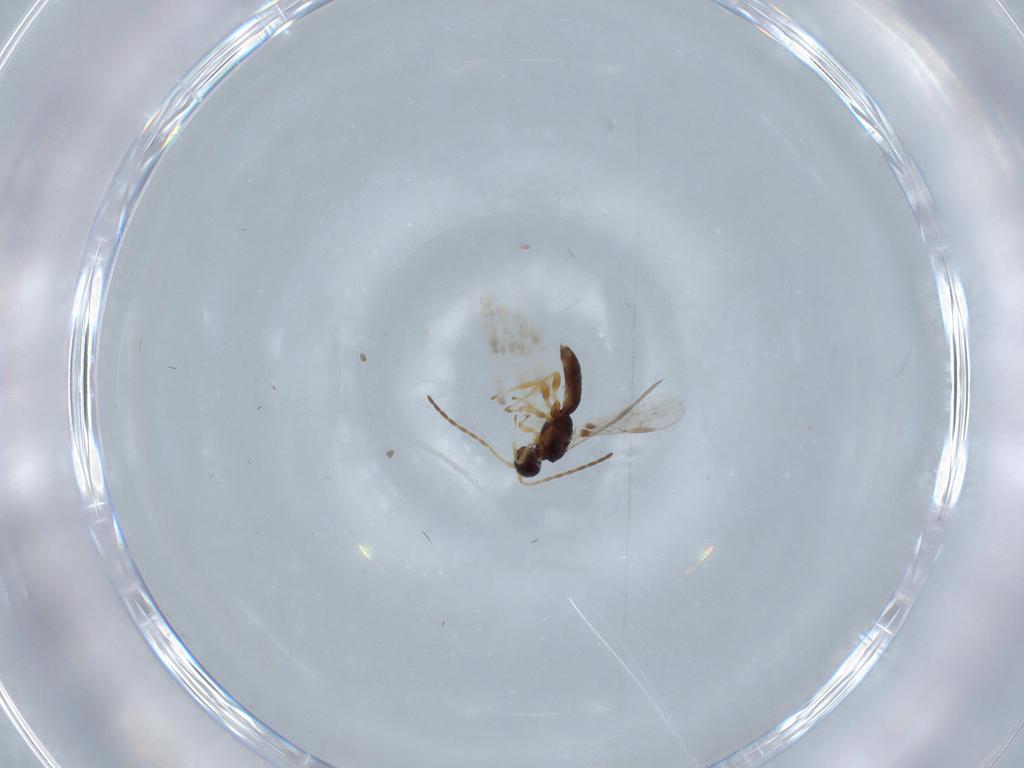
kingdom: Animalia
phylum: Arthropoda
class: Insecta
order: Hymenoptera
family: Braconidae
